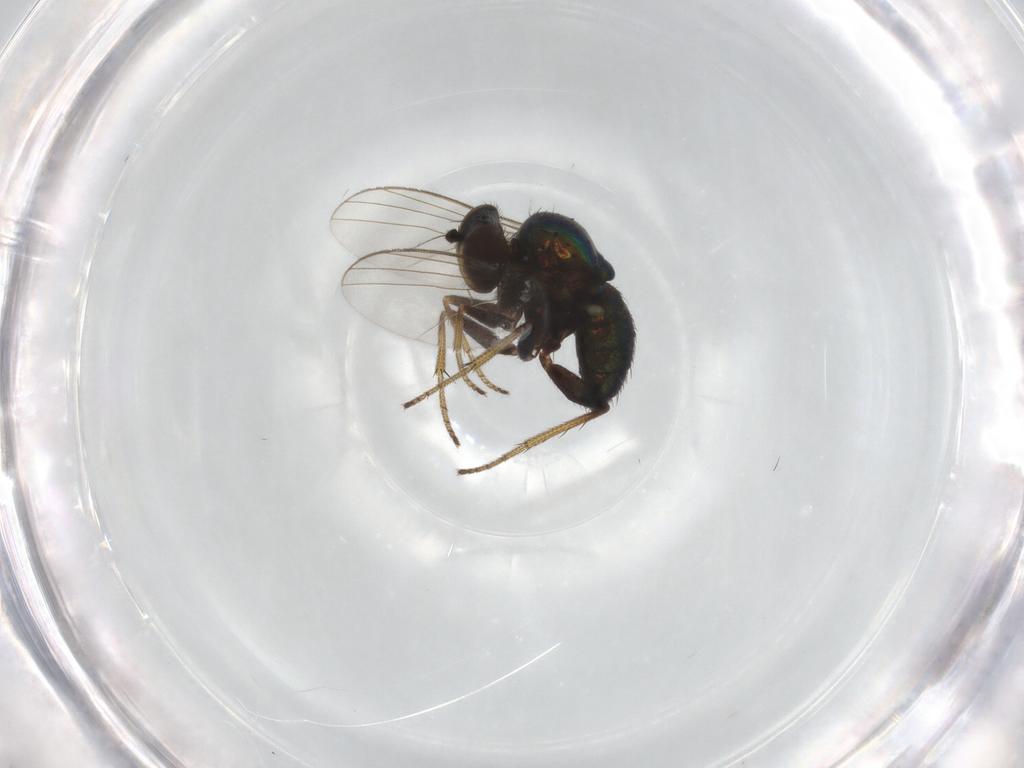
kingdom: Animalia
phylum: Arthropoda
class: Insecta
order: Diptera
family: Dolichopodidae
